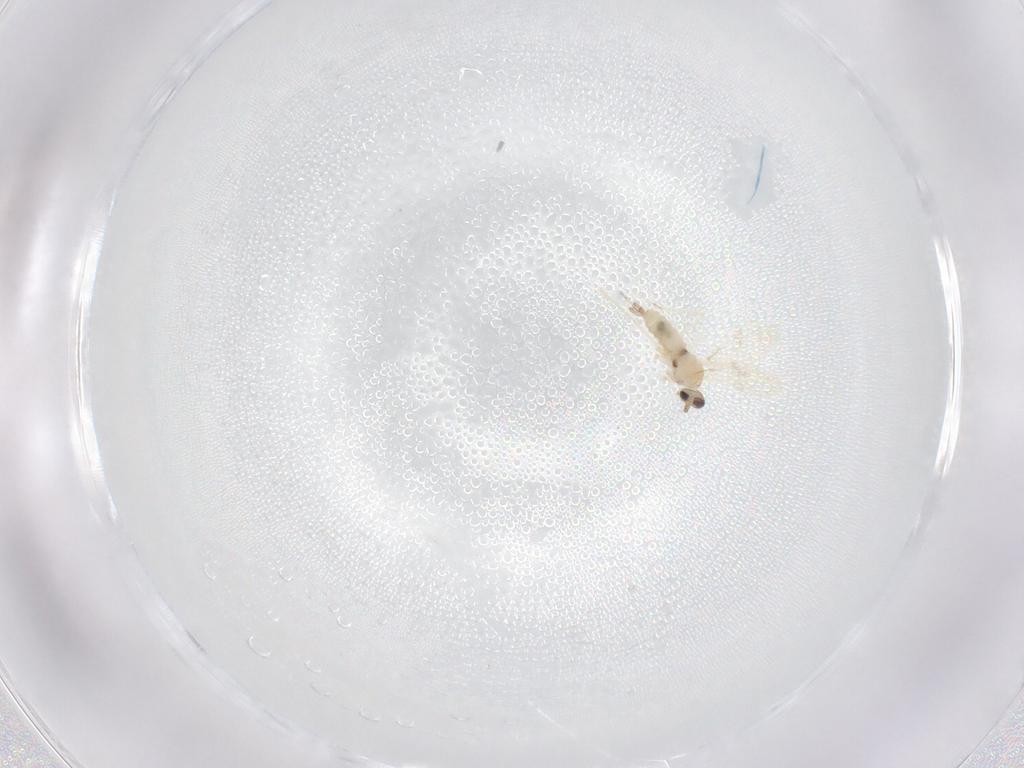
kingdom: Animalia
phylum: Arthropoda
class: Insecta
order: Diptera
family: Cecidomyiidae
